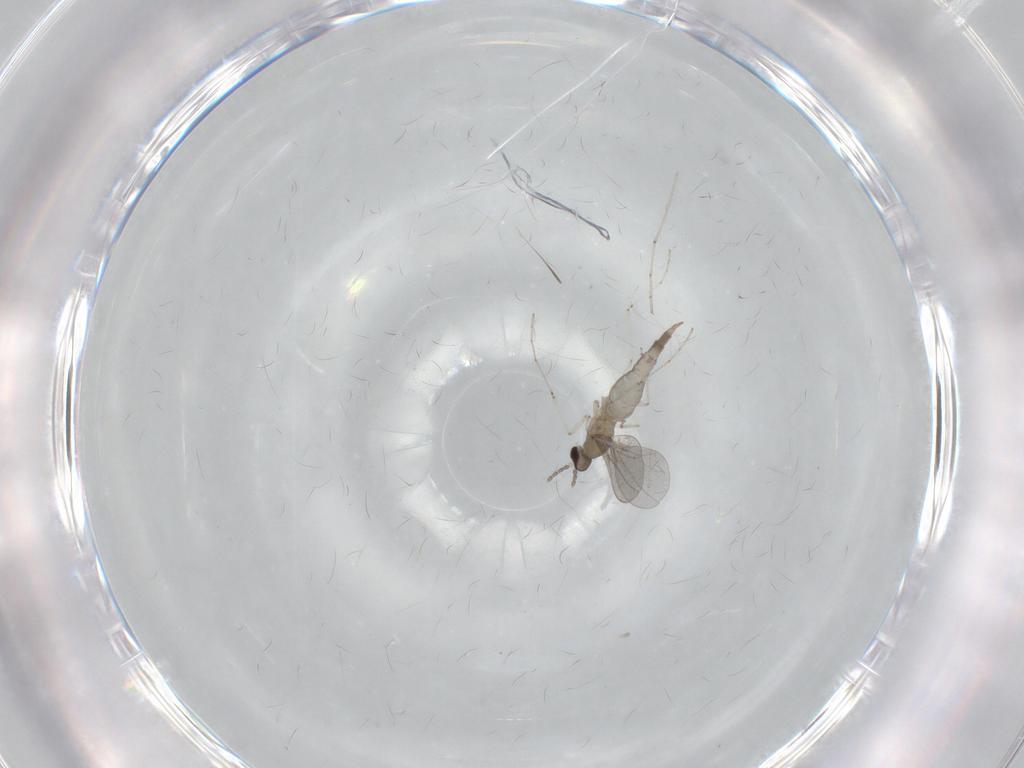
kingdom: Animalia
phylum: Arthropoda
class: Insecta
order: Diptera
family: Cecidomyiidae
